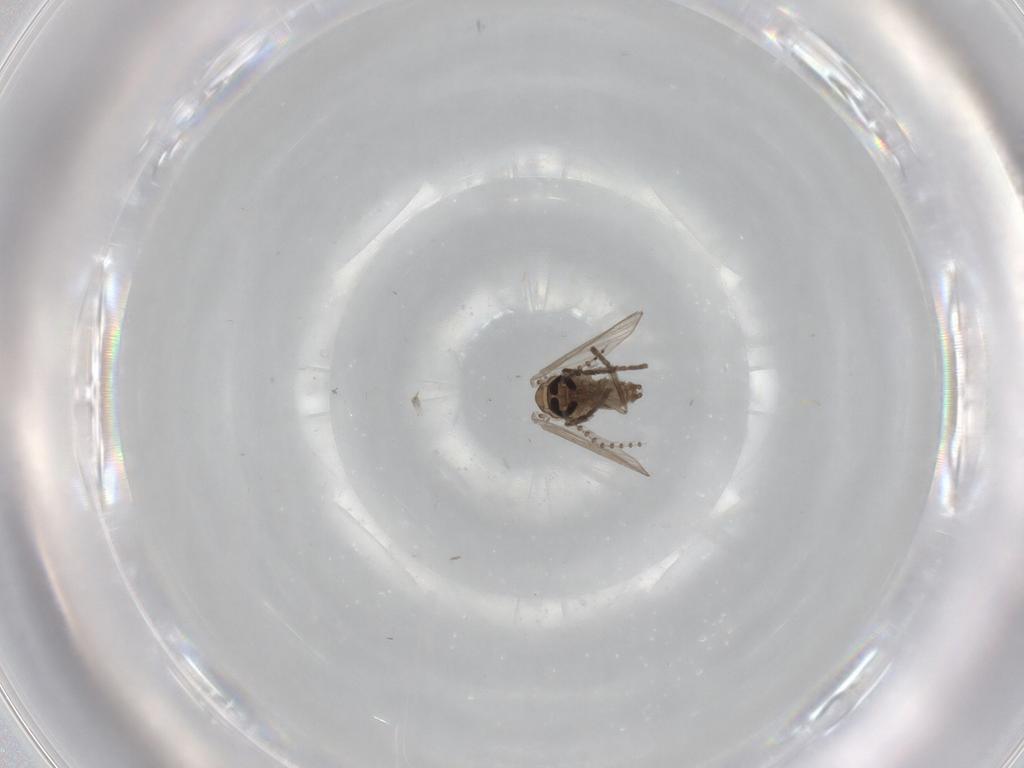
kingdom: Animalia
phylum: Arthropoda
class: Insecta
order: Diptera
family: Psychodidae
